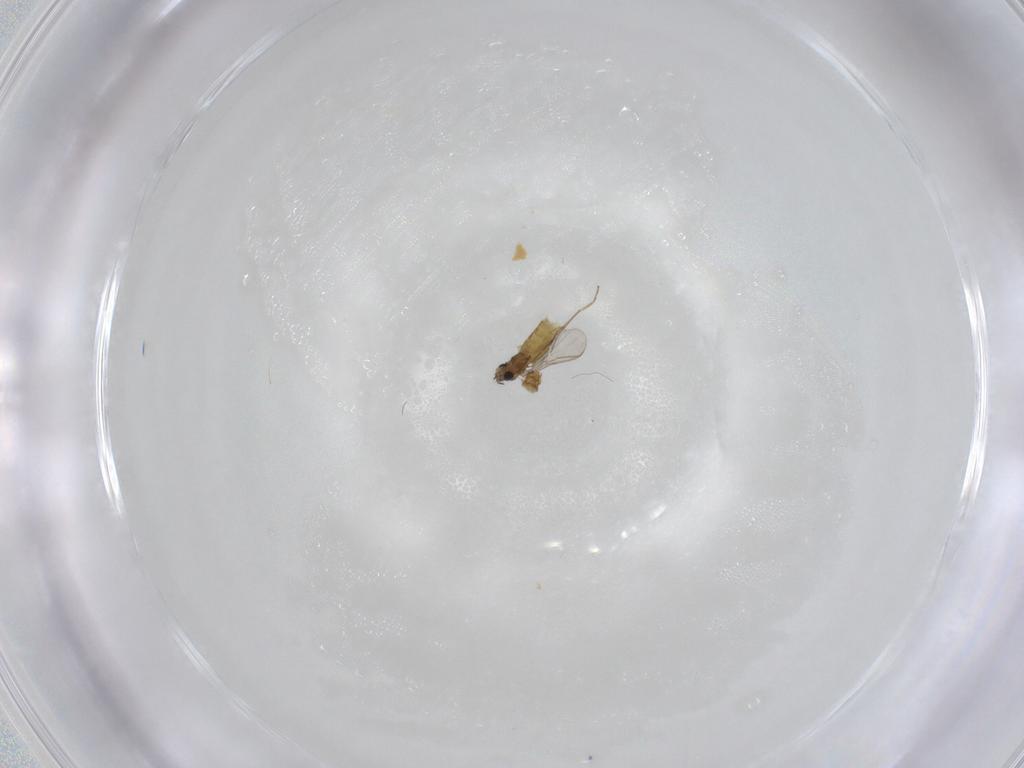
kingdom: Animalia
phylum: Arthropoda
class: Insecta
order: Diptera
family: Chironomidae
